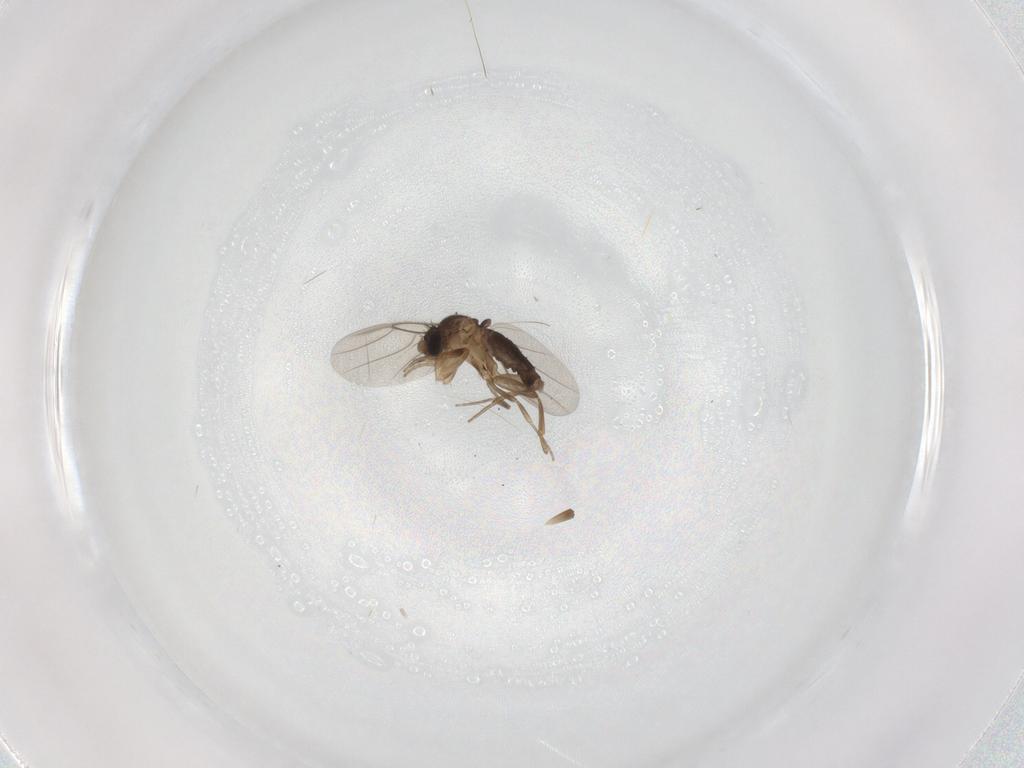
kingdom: Animalia
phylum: Arthropoda
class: Insecta
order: Diptera
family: Phoridae
